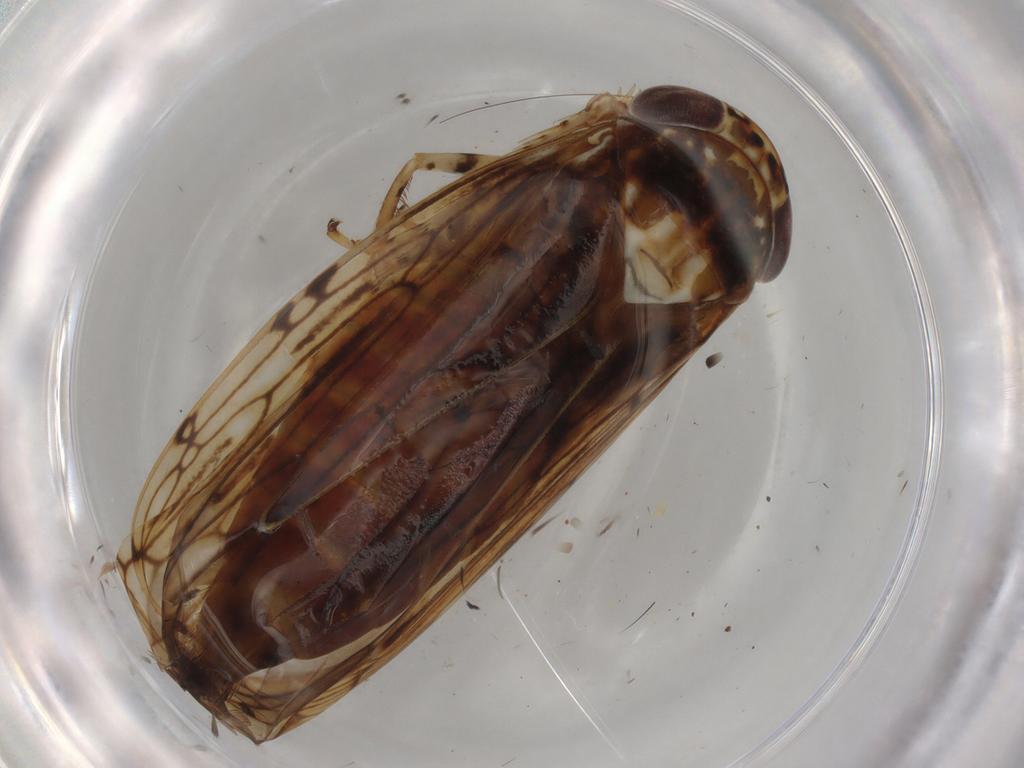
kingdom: Animalia
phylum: Arthropoda
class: Insecta
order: Hemiptera
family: Cicadellidae
